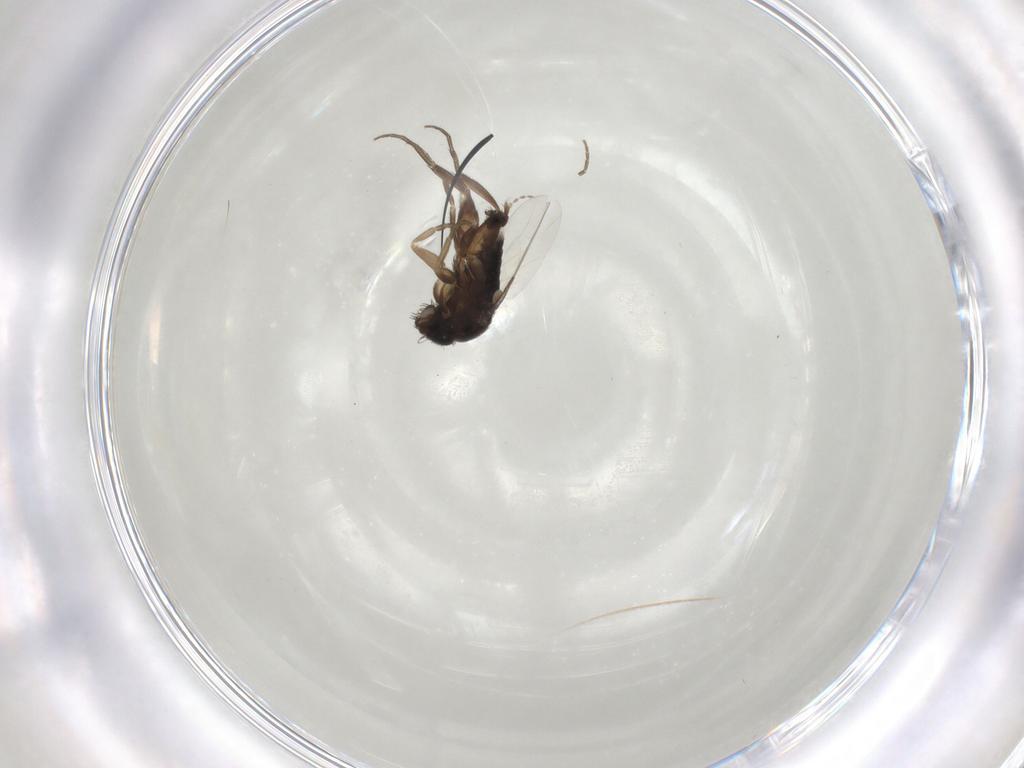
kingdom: Animalia
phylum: Arthropoda
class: Insecta
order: Diptera
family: Phoridae
